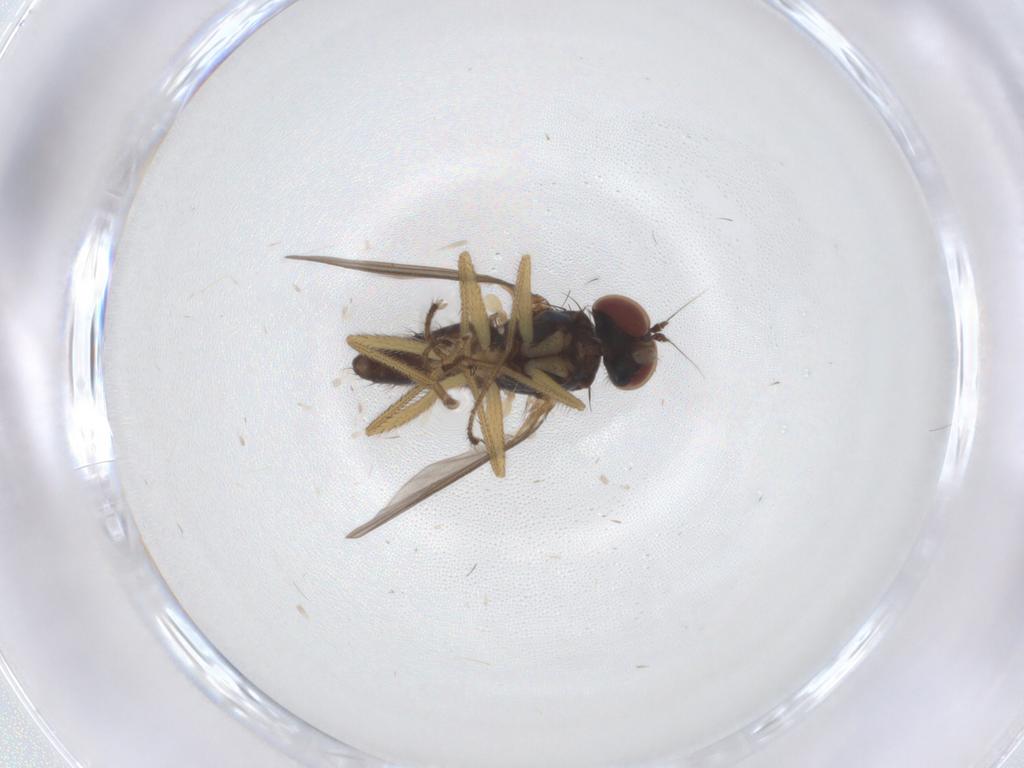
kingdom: Animalia
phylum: Arthropoda
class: Insecta
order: Diptera
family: Dolichopodidae
